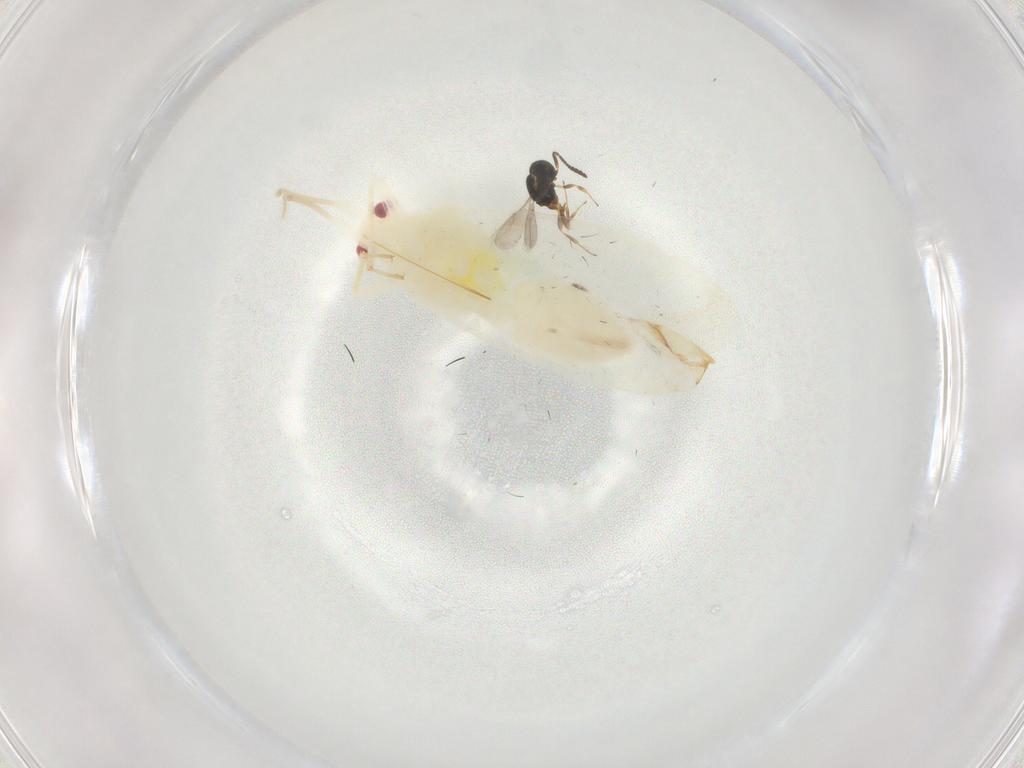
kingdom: Animalia
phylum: Arthropoda
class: Insecta
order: Hemiptera
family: Miridae
